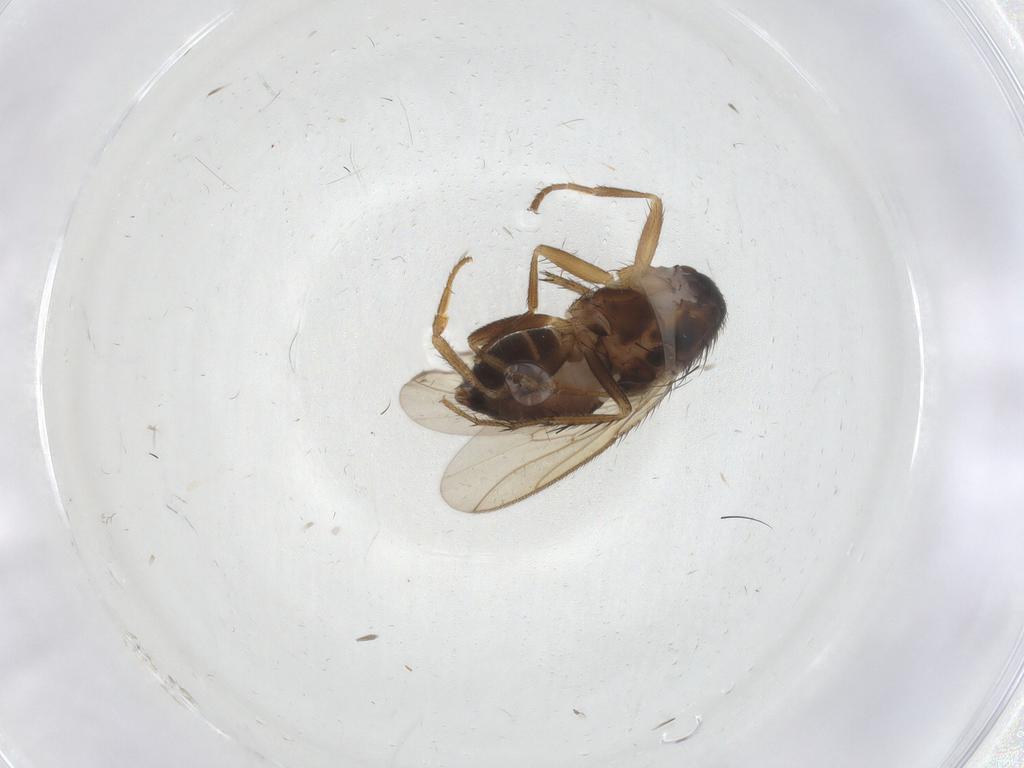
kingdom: Animalia
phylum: Arthropoda
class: Insecta
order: Diptera
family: Sphaeroceridae
